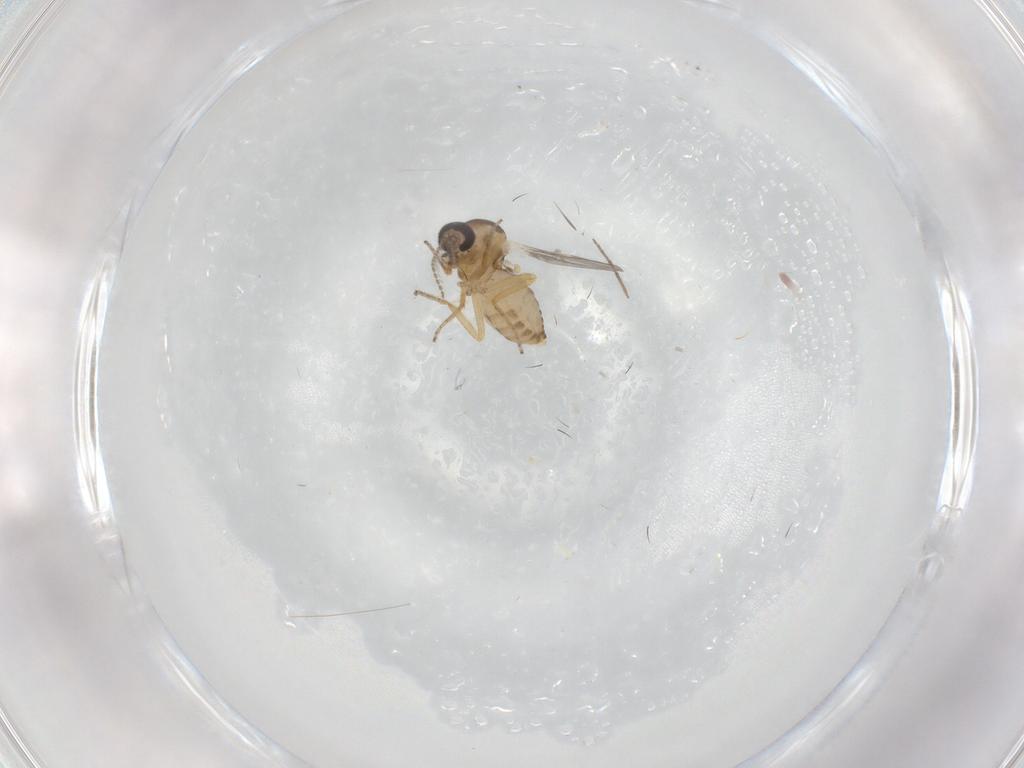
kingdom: Animalia
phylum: Arthropoda
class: Insecta
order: Diptera
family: Ceratopogonidae
